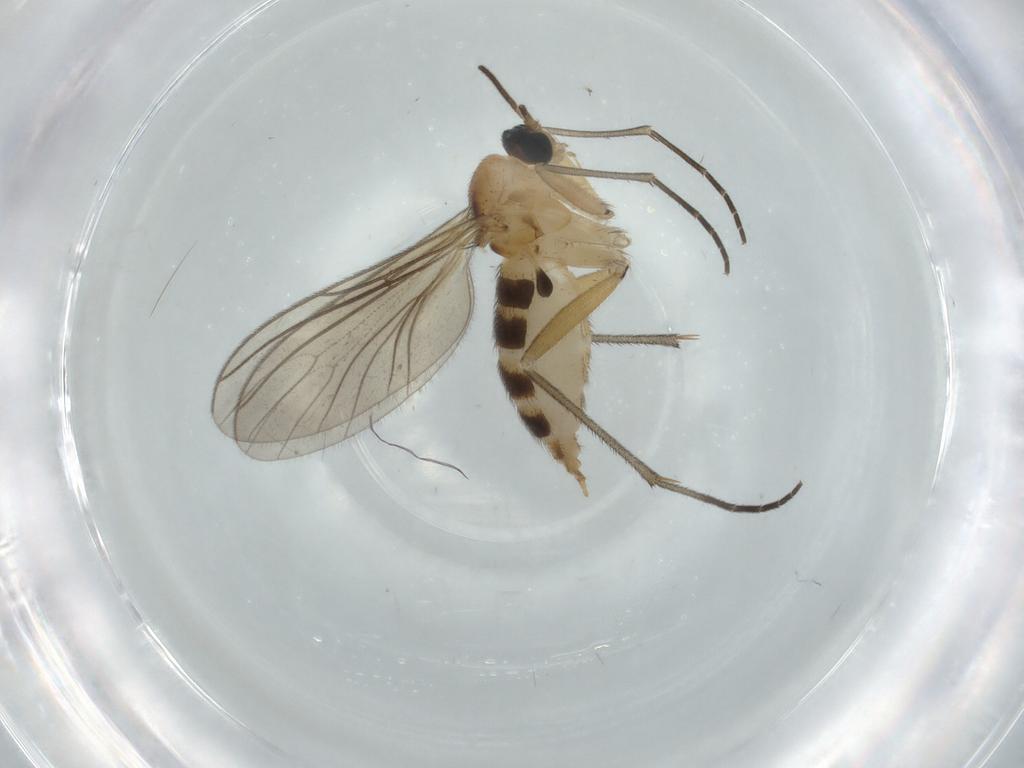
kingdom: Animalia
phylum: Arthropoda
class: Insecta
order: Diptera
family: Sciaridae
